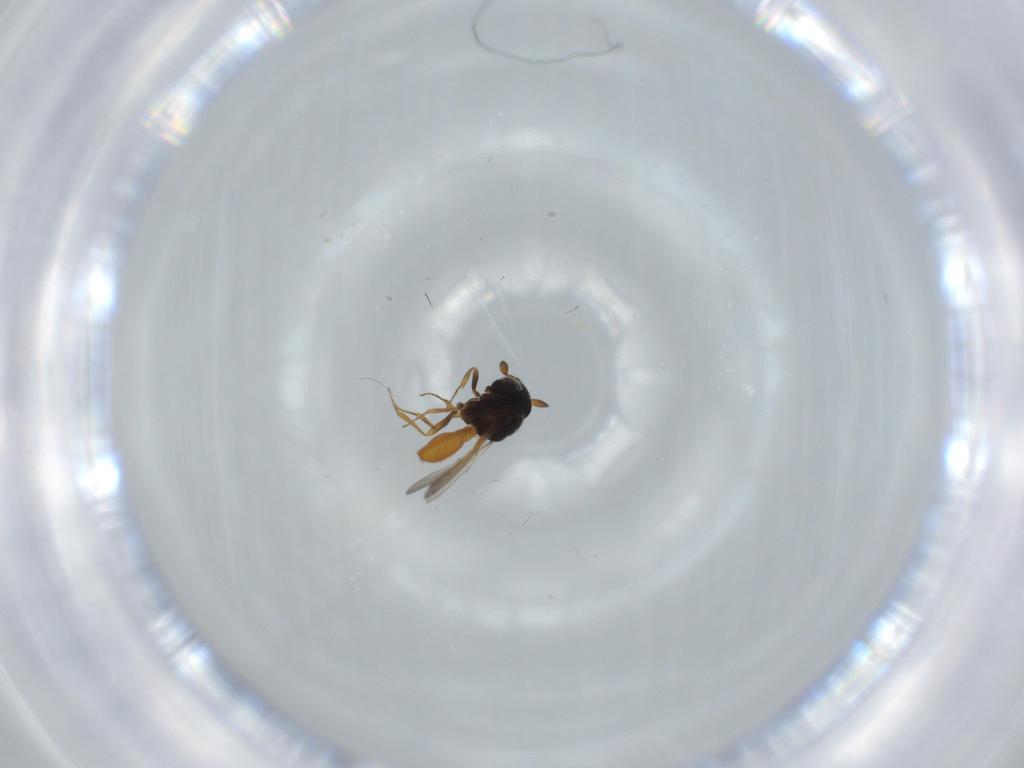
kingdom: Animalia
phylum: Arthropoda
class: Insecta
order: Hymenoptera
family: Scelionidae
